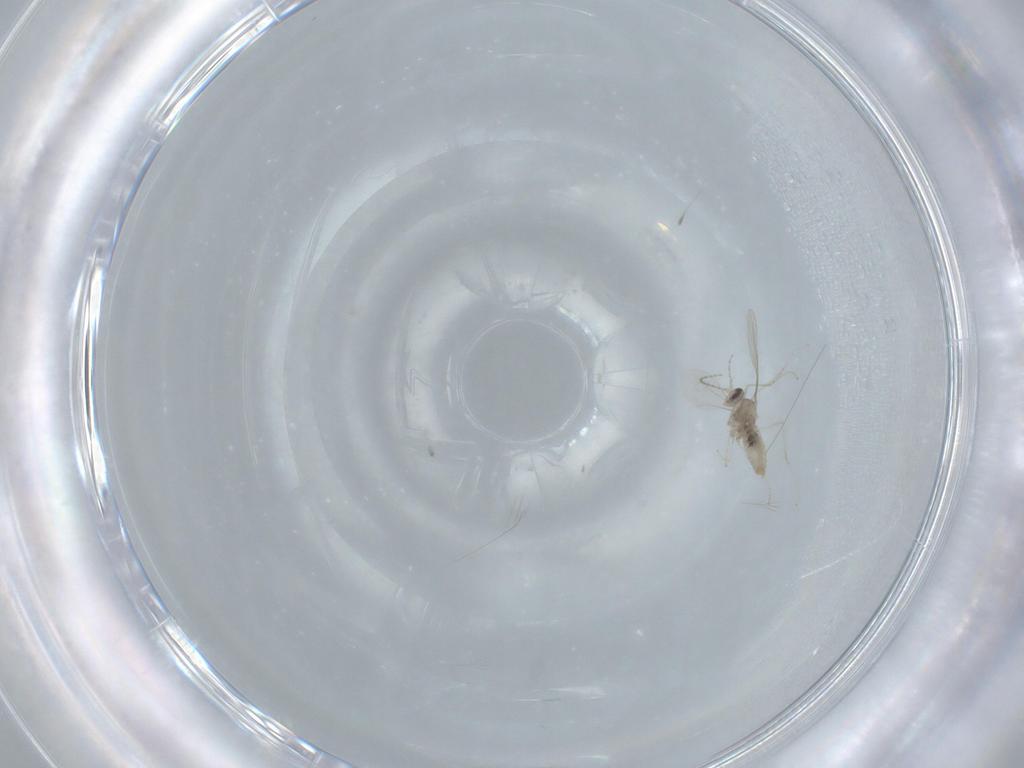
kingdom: Animalia
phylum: Arthropoda
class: Insecta
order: Diptera
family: Cecidomyiidae
